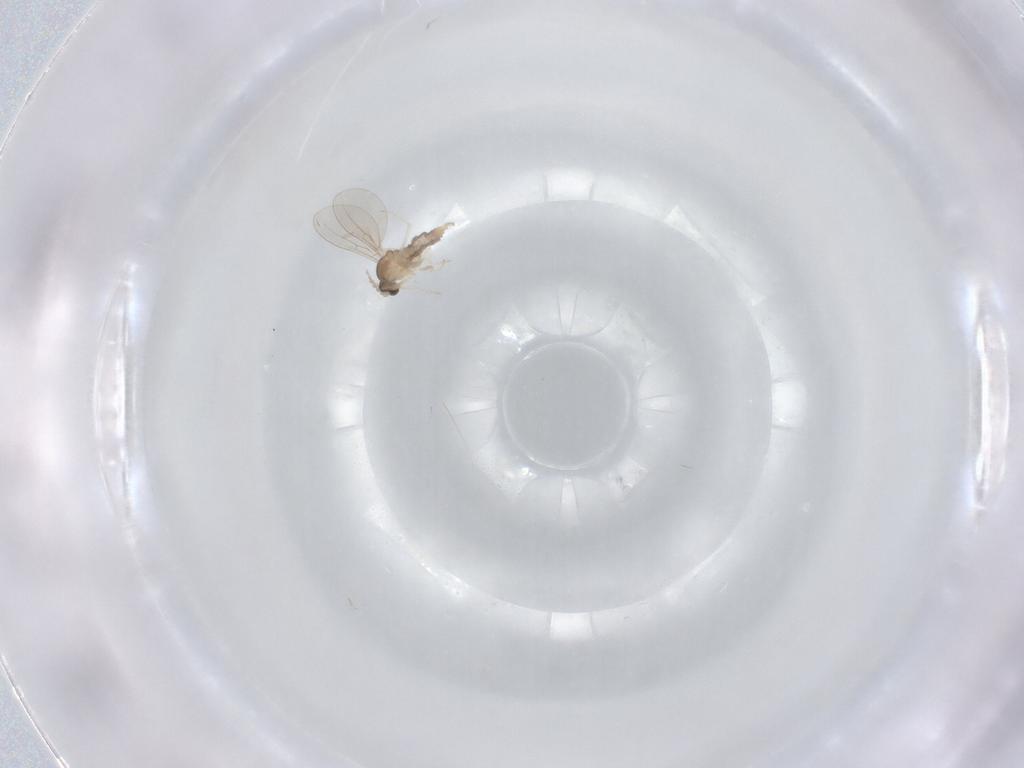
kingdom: Animalia
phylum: Arthropoda
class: Insecta
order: Diptera
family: Cecidomyiidae
